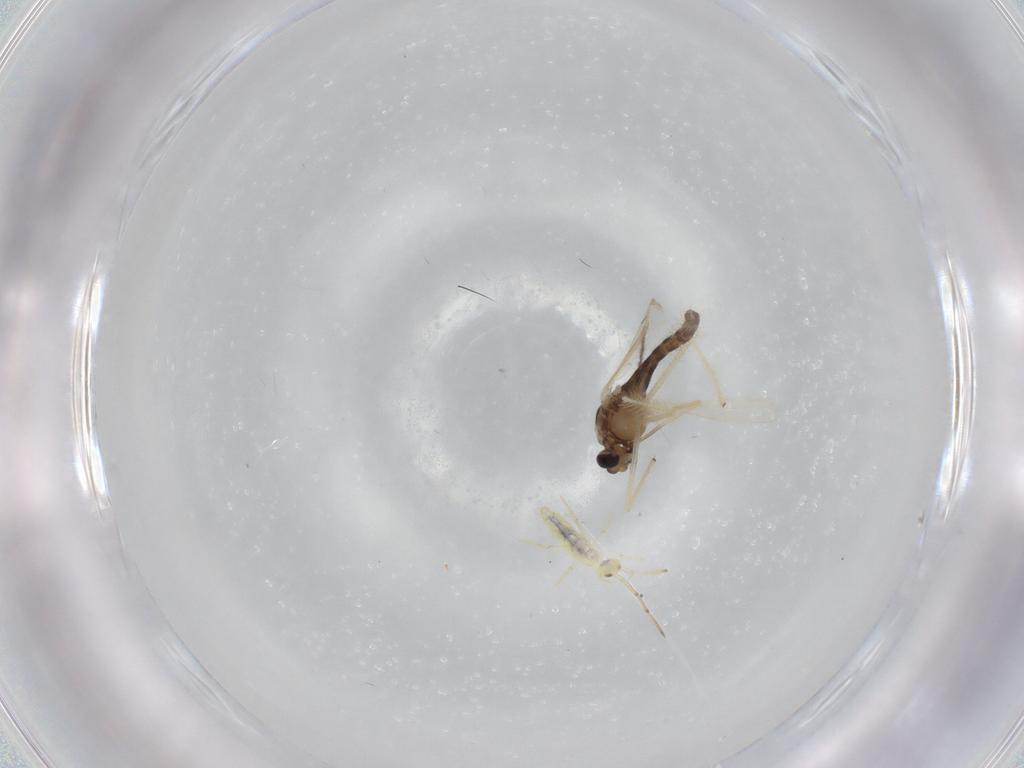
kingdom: Animalia
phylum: Arthropoda
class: Insecta
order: Diptera
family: Chironomidae
